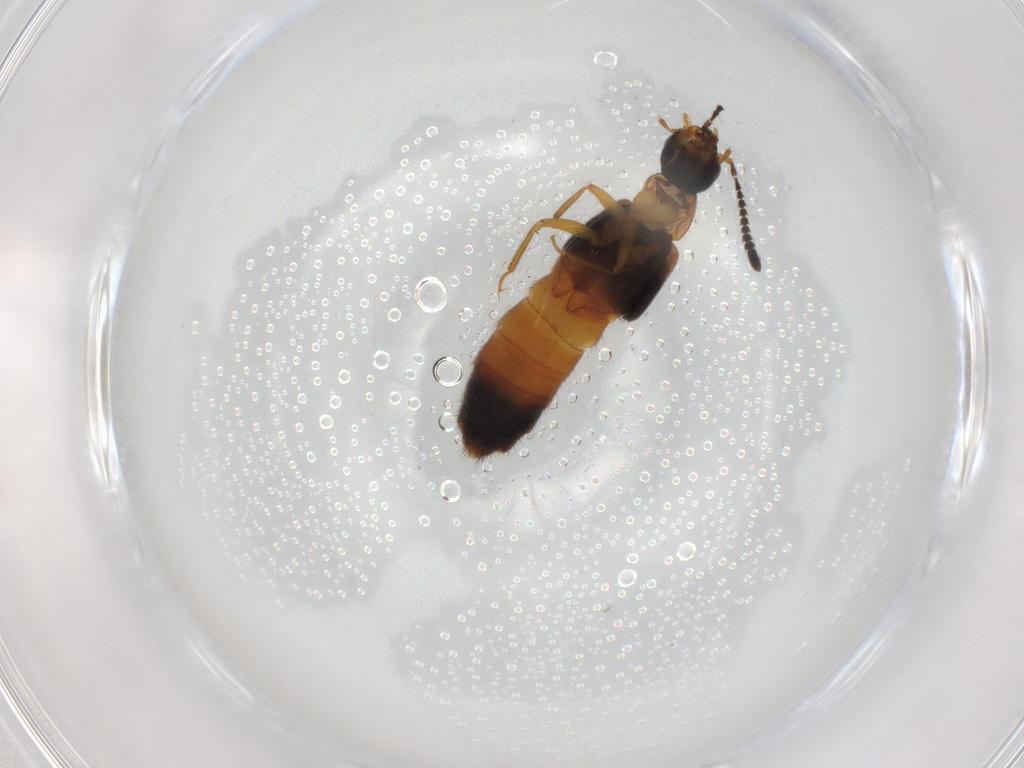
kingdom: Animalia
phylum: Arthropoda
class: Insecta
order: Coleoptera
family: Staphylinidae
